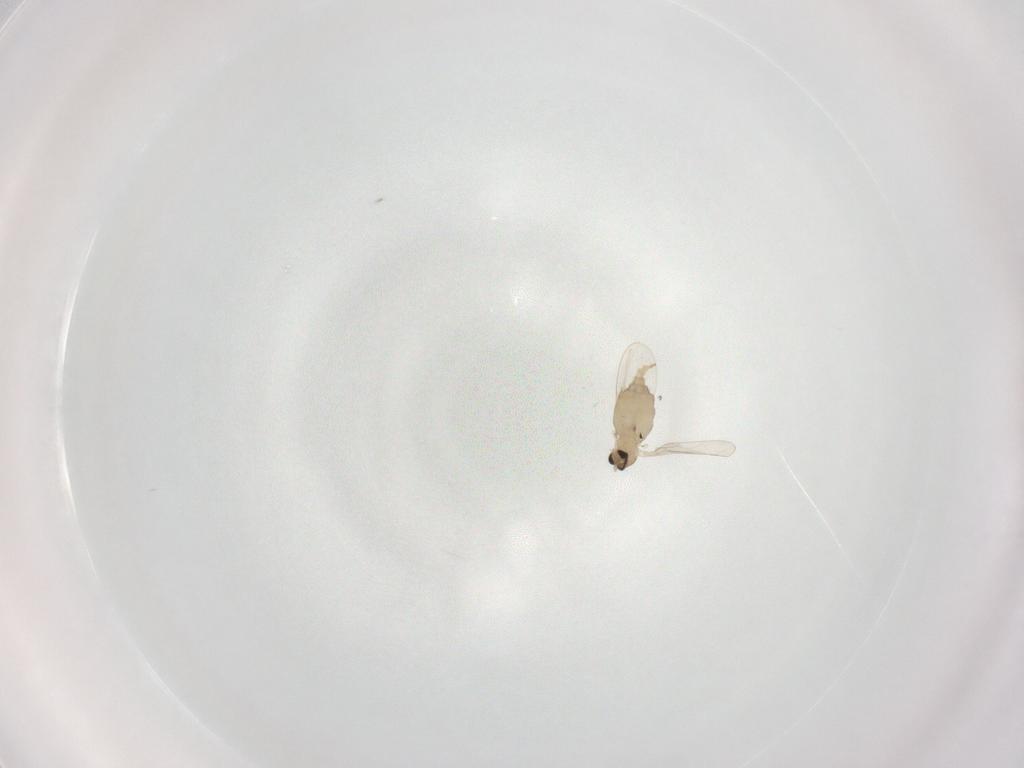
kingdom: Animalia
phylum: Arthropoda
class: Insecta
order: Diptera
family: Cecidomyiidae
